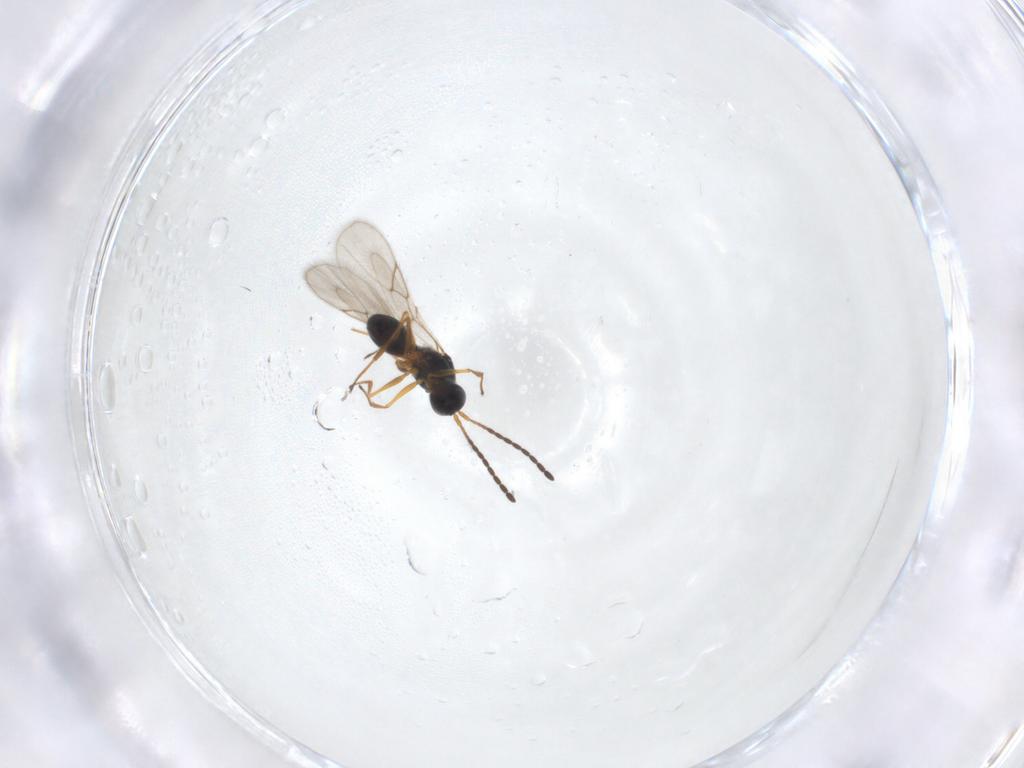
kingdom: Animalia
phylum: Arthropoda
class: Insecta
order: Hymenoptera
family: Figitidae
